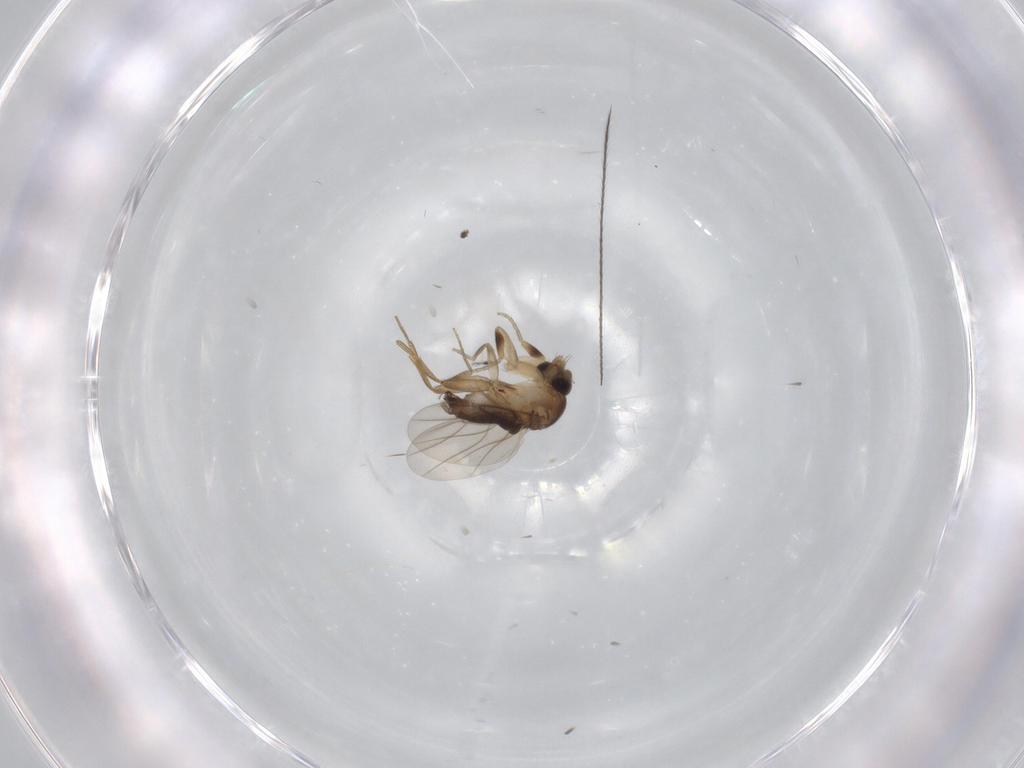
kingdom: Animalia
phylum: Arthropoda
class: Insecta
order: Diptera
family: Phoridae
